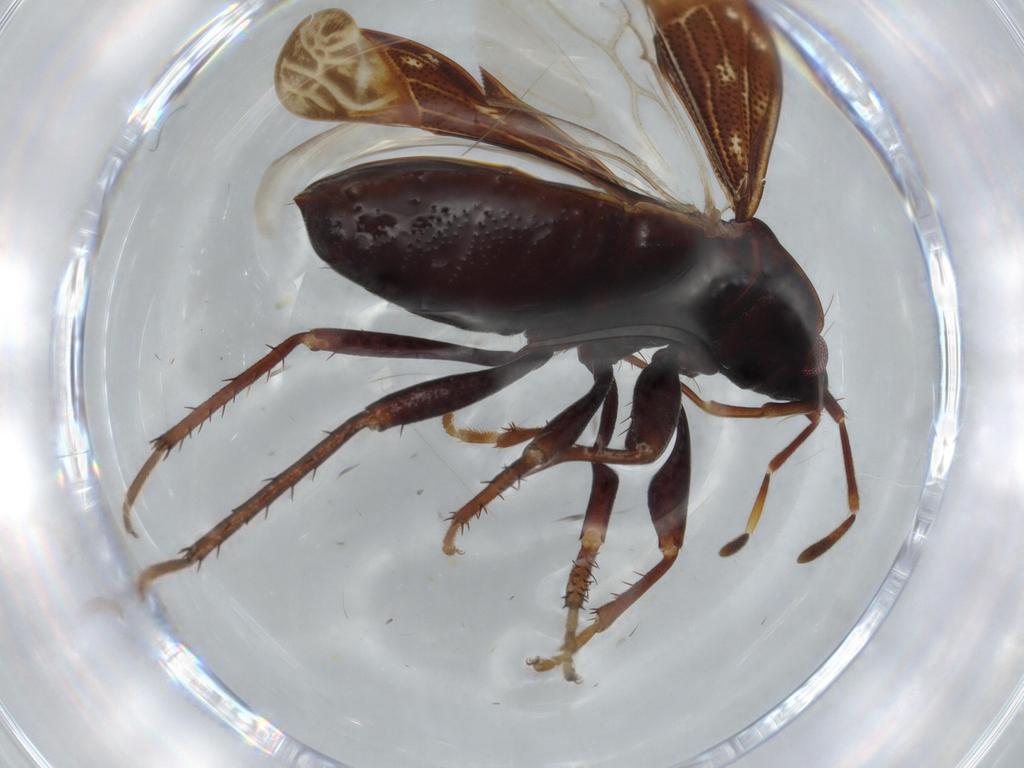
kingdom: Animalia
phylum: Arthropoda
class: Insecta
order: Hemiptera
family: Rhyparochromidae
